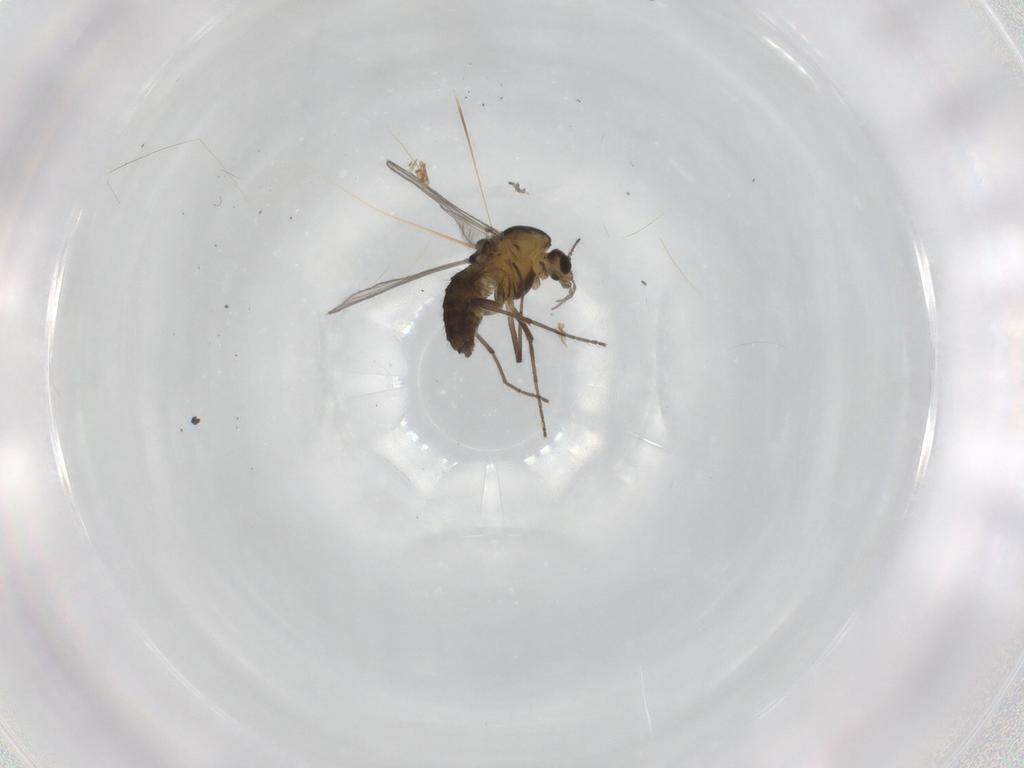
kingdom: Animalia
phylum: Arthropoda
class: Insecta
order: Diptera
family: Chironomidae
